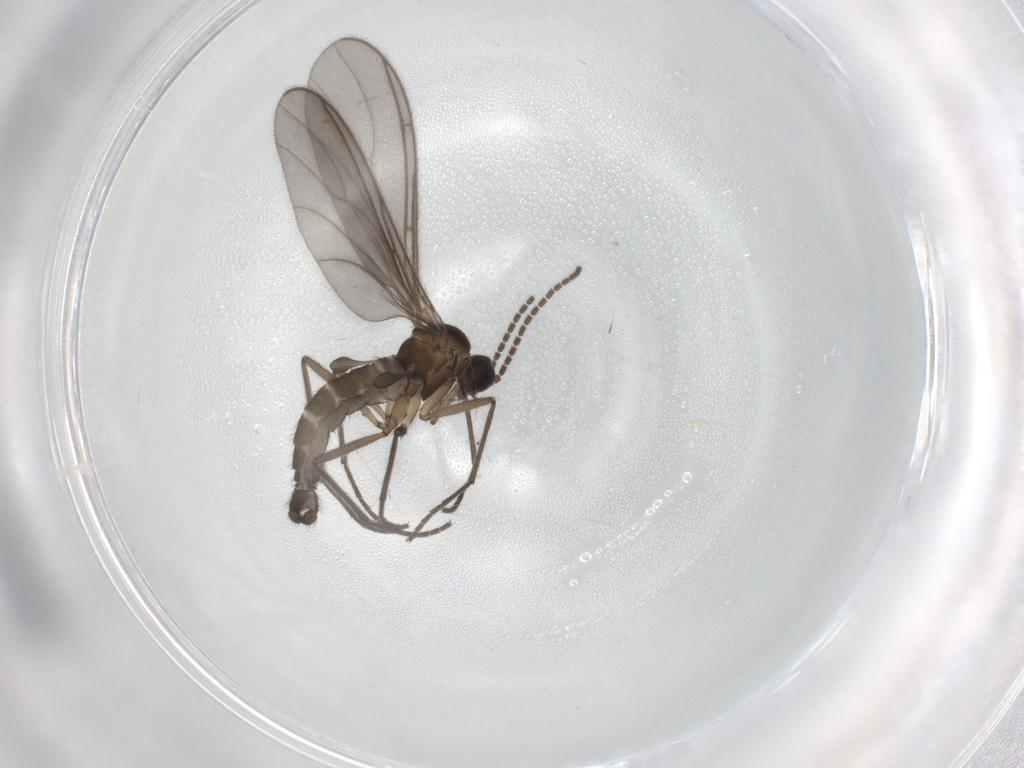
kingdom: Animalia
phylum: Arthropoda
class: Insecta
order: Diptera
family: Sciaridae
